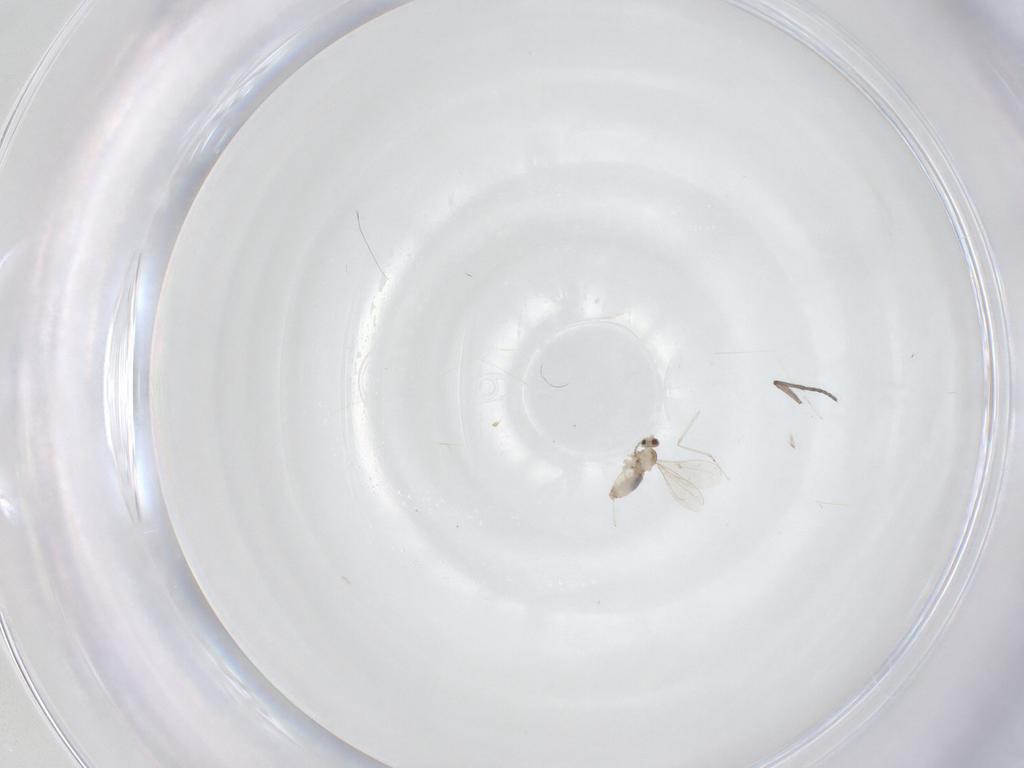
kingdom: Animalia
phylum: Arthropoda
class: Insecta
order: Diptera
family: Cecidomyiidae
